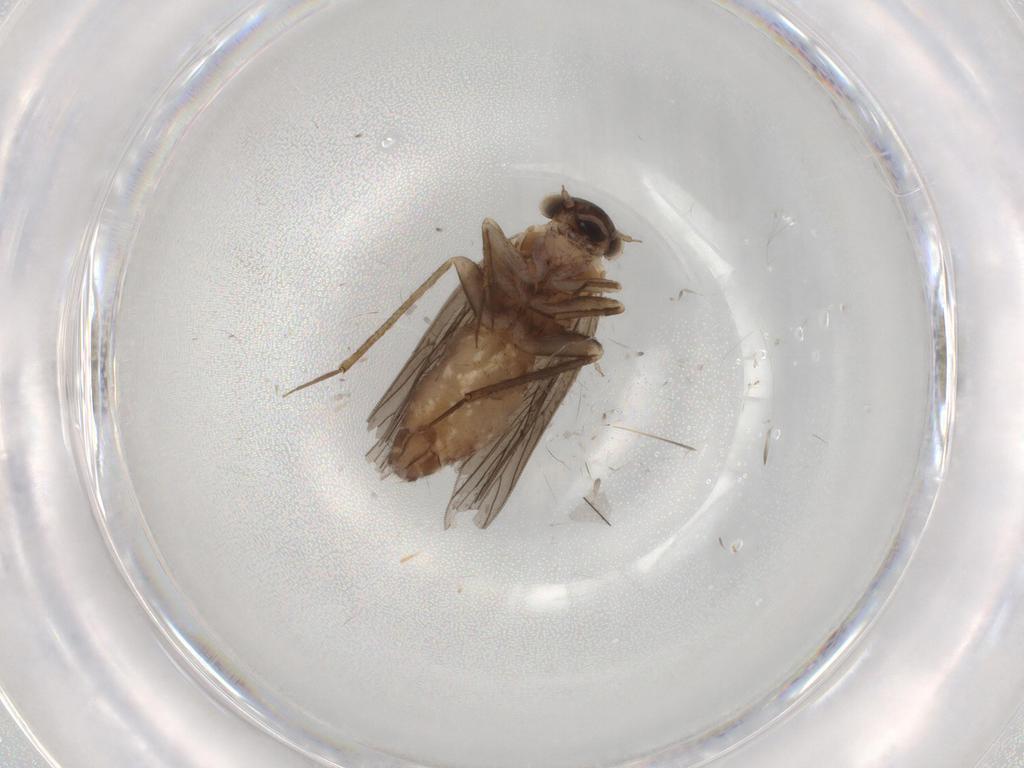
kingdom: Animalia
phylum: Arthropoda
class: Insecta
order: Psocodea
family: Lepidopsocidae
